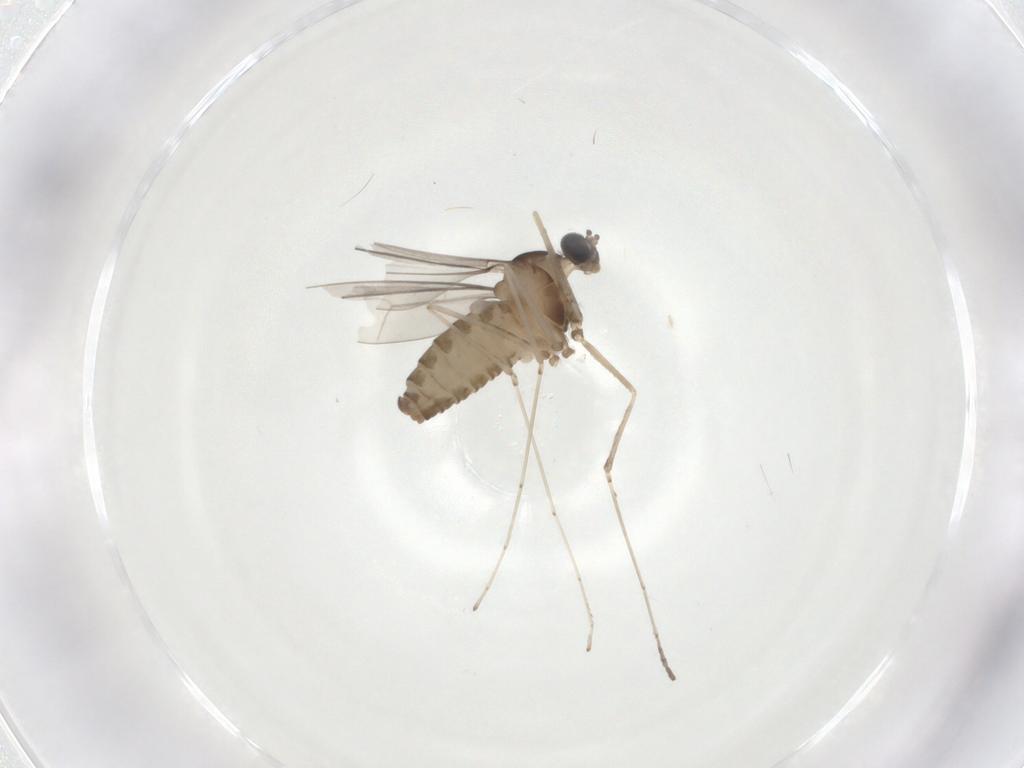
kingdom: Animalia
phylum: Arthropoda
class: Insecta
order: Diptera
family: Cecidomyiidae
